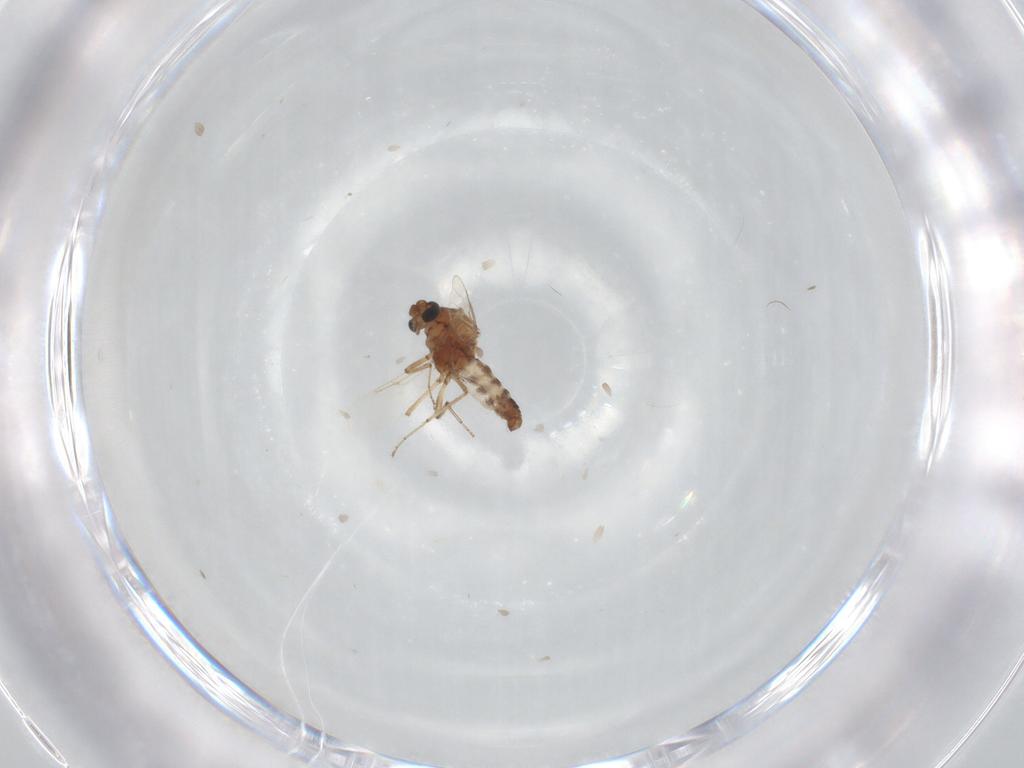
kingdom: Animalia
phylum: Arthropoda
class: Insecta
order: Diptera
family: Ceratopogonidae
